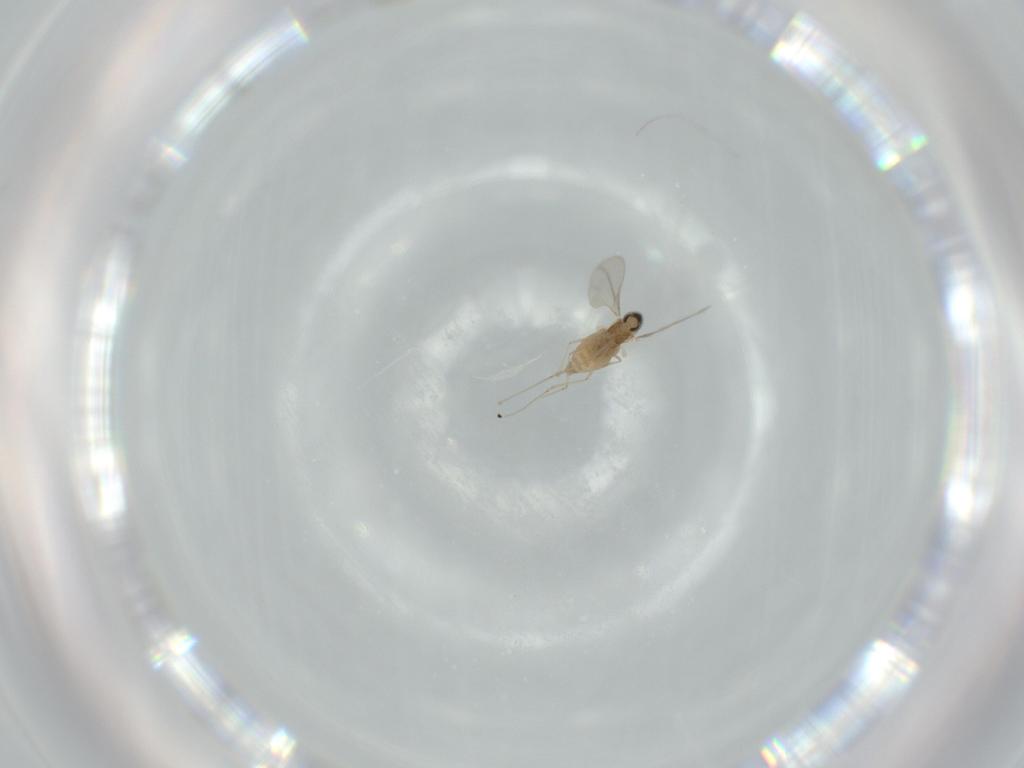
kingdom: Animalia
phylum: Arthropoda
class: Insecta
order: Diptera
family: Cecidomyiidae
